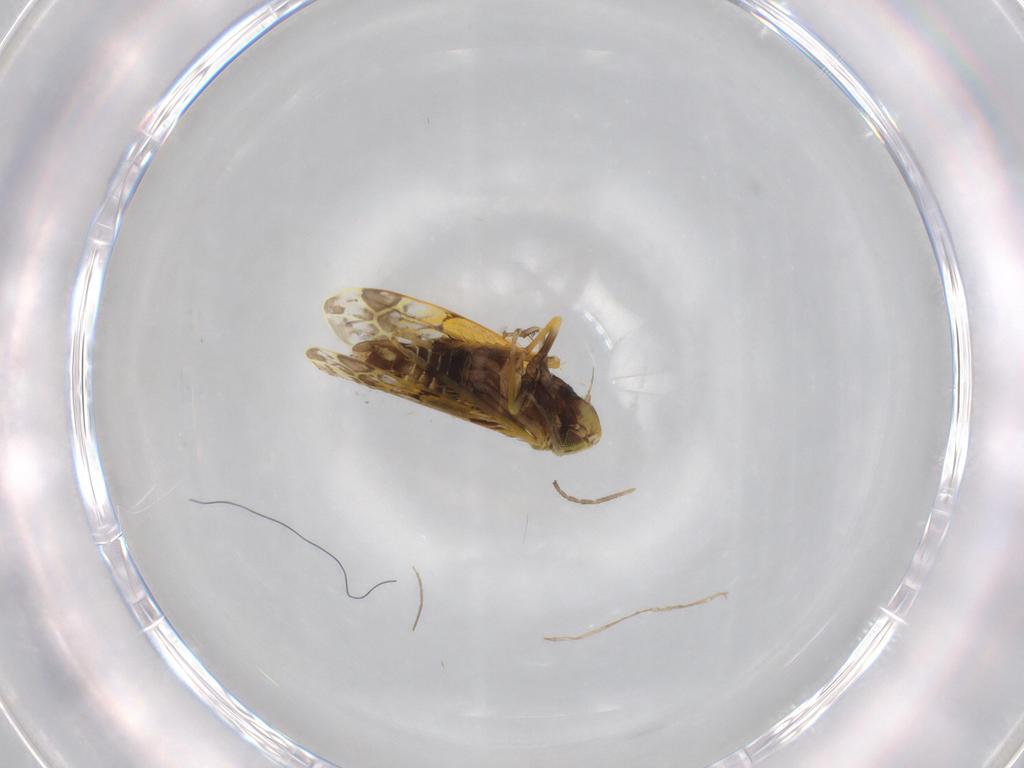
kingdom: Animalia
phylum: Arthropoda
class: Insecta
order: Hemiptera
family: Cicadellidae
